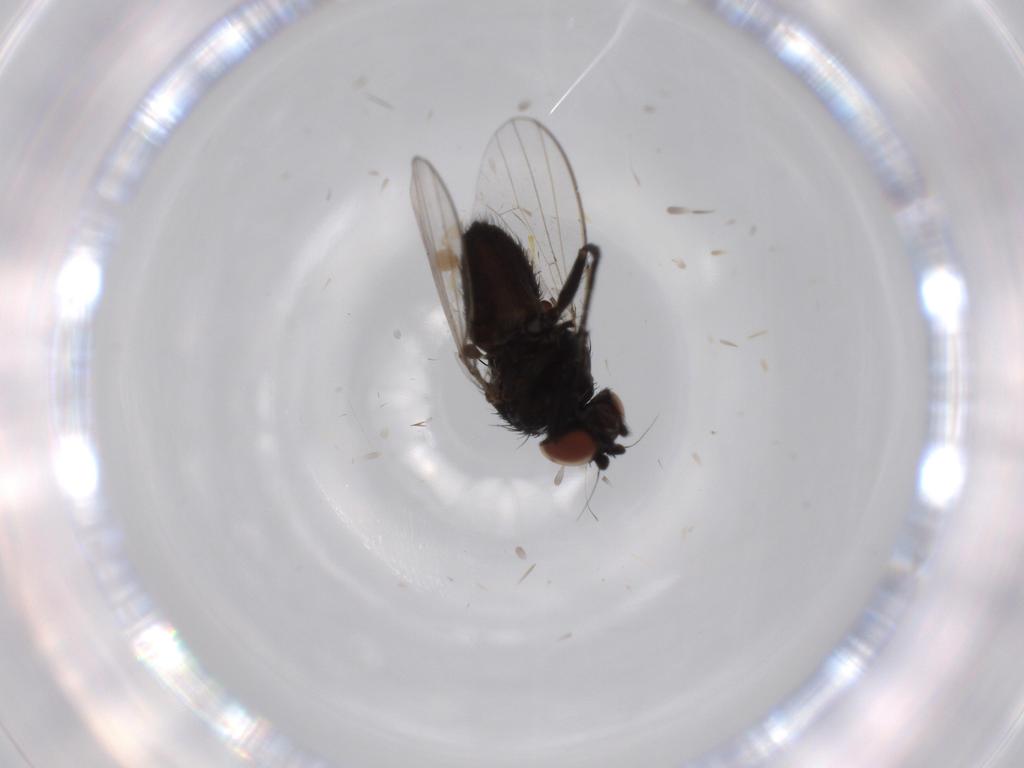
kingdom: Animalia
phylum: Arthropoda
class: Insecta
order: Diptera
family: Milichiidae
